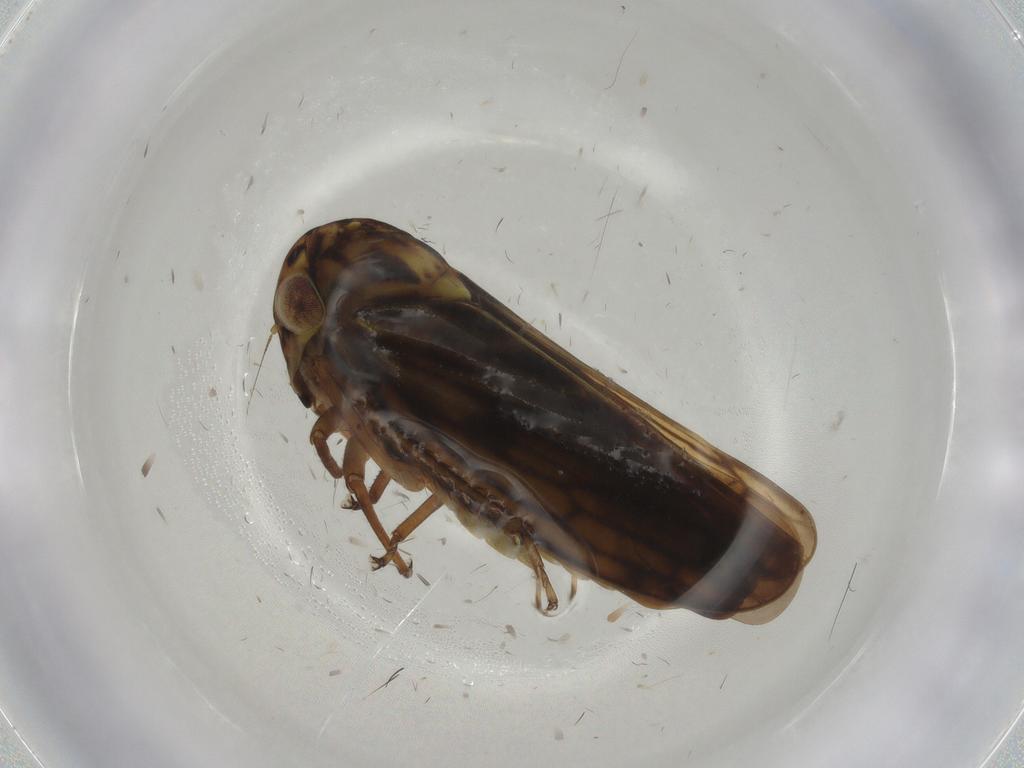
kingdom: Animalia
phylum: Arthropoda
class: Insecta
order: Hemiptera
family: Cicadellidae
